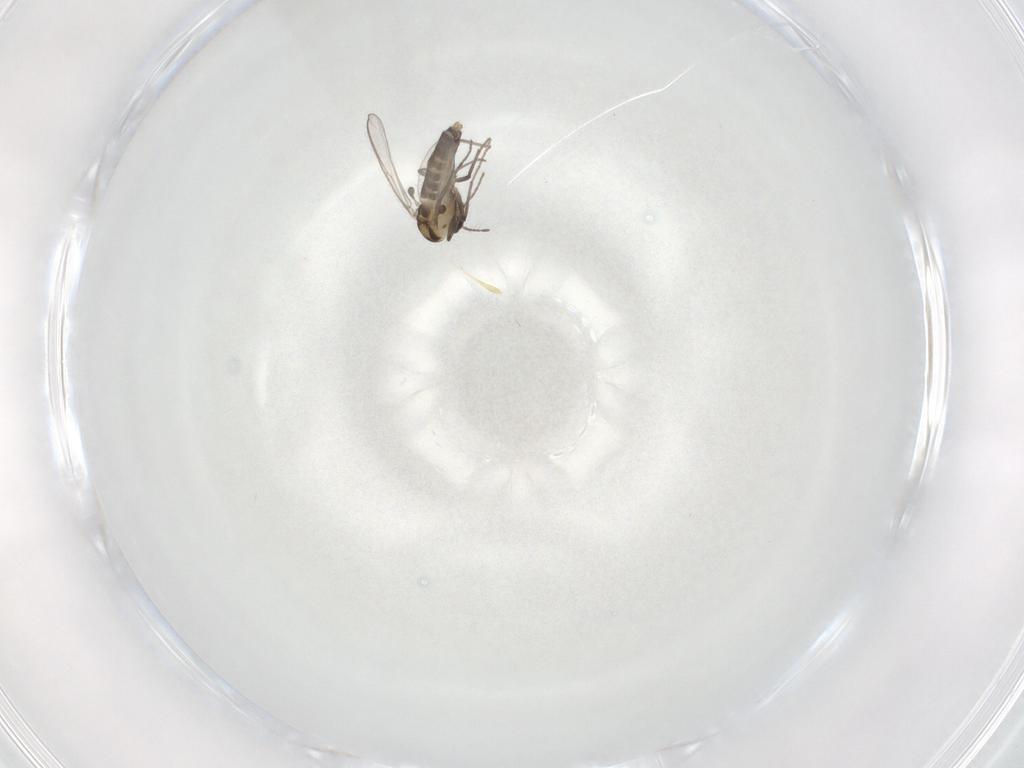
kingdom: Animalia
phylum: Arthropoda
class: Insecta
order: Diptera
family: Chironomidae
